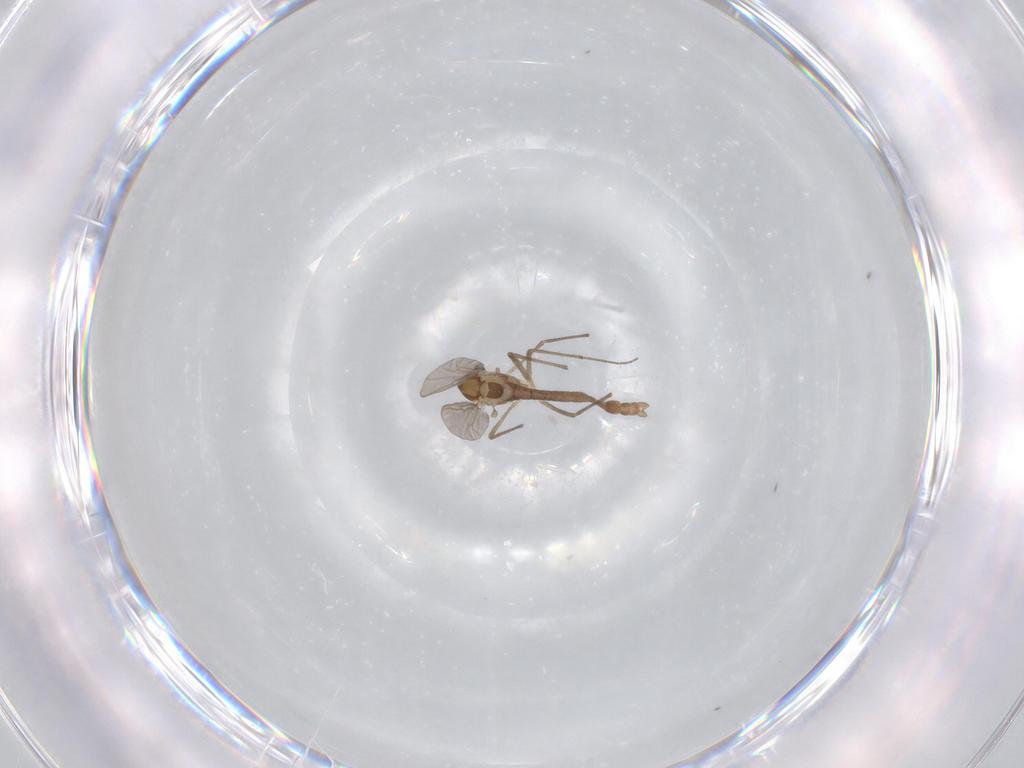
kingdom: Animalia
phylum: Arthropoda
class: Insecta
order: Diptera
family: Chironomidae
